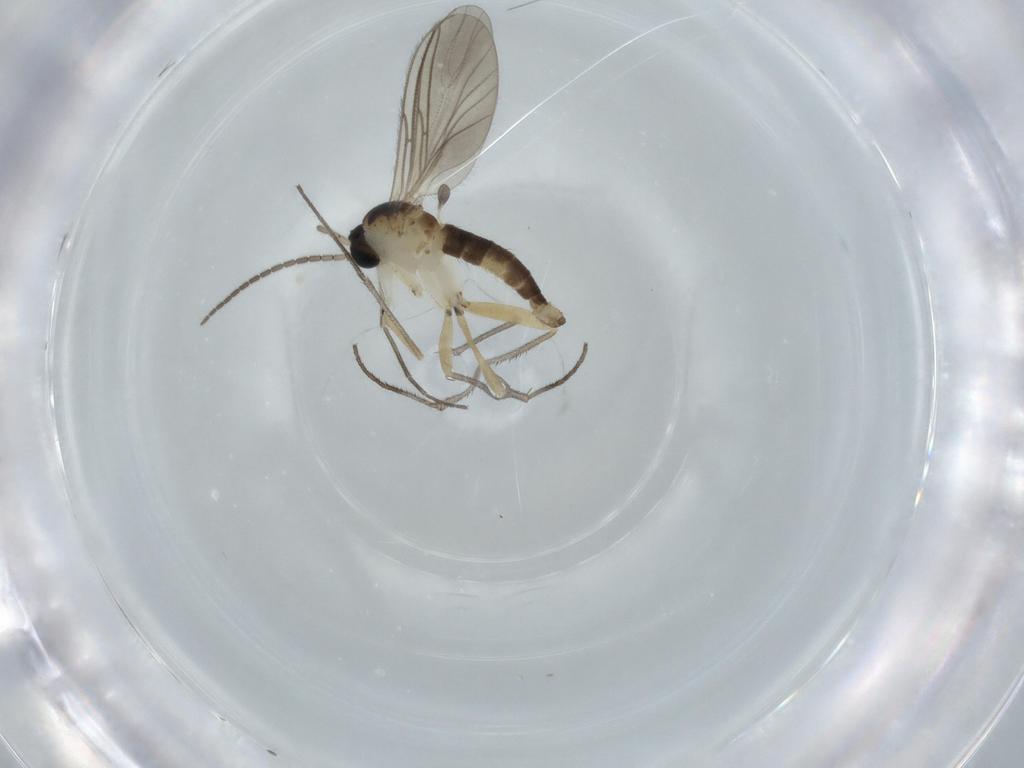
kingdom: Animalia
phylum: Arthropoda
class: Insecta
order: Diptera
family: Sciaridae
